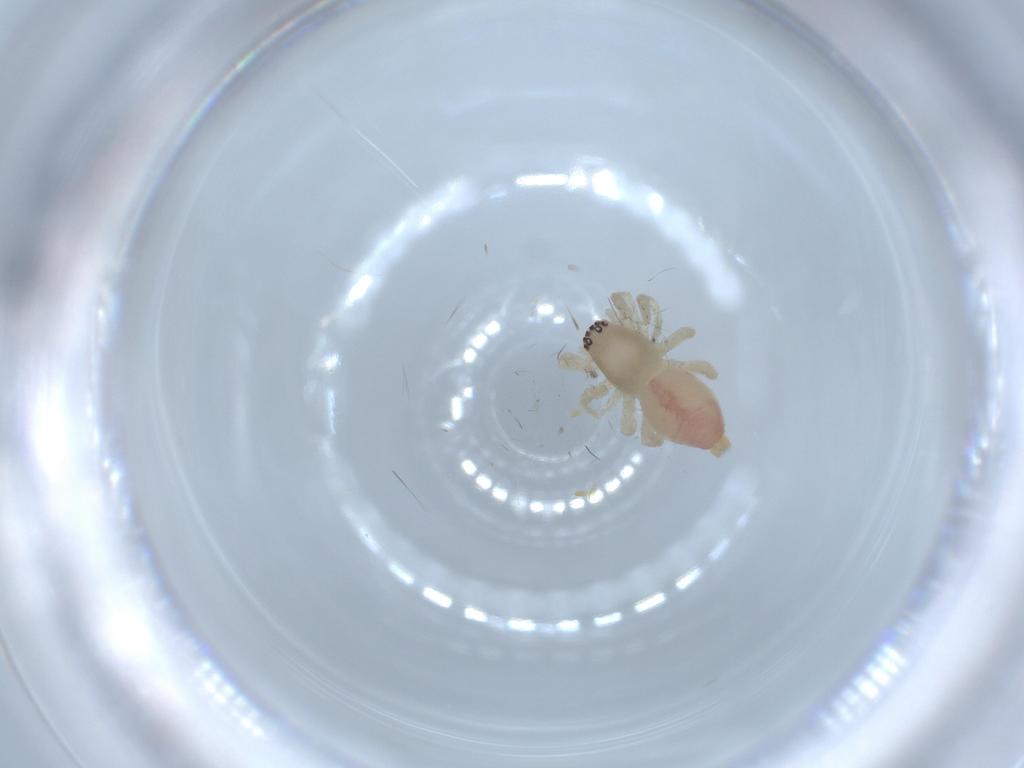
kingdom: Animalia
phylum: Arthropoda
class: Arachnida
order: Araneae
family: Clubionidae
